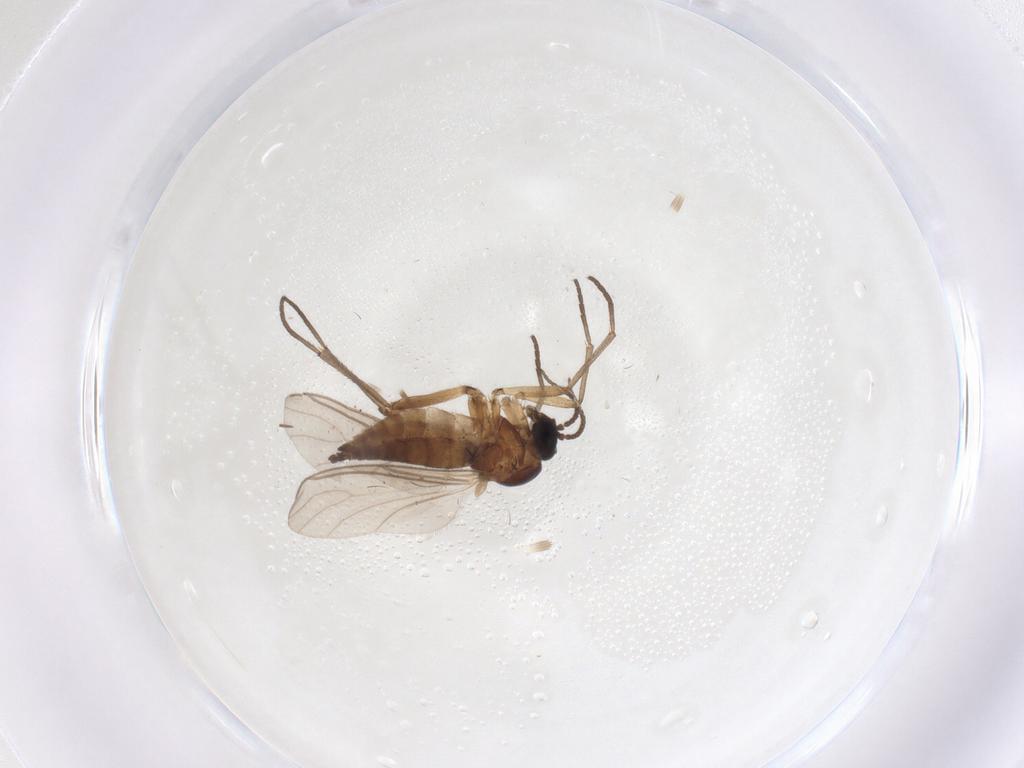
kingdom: Animalia
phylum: Arthropoda
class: Insecta
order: Diptera
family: Sciaridae
